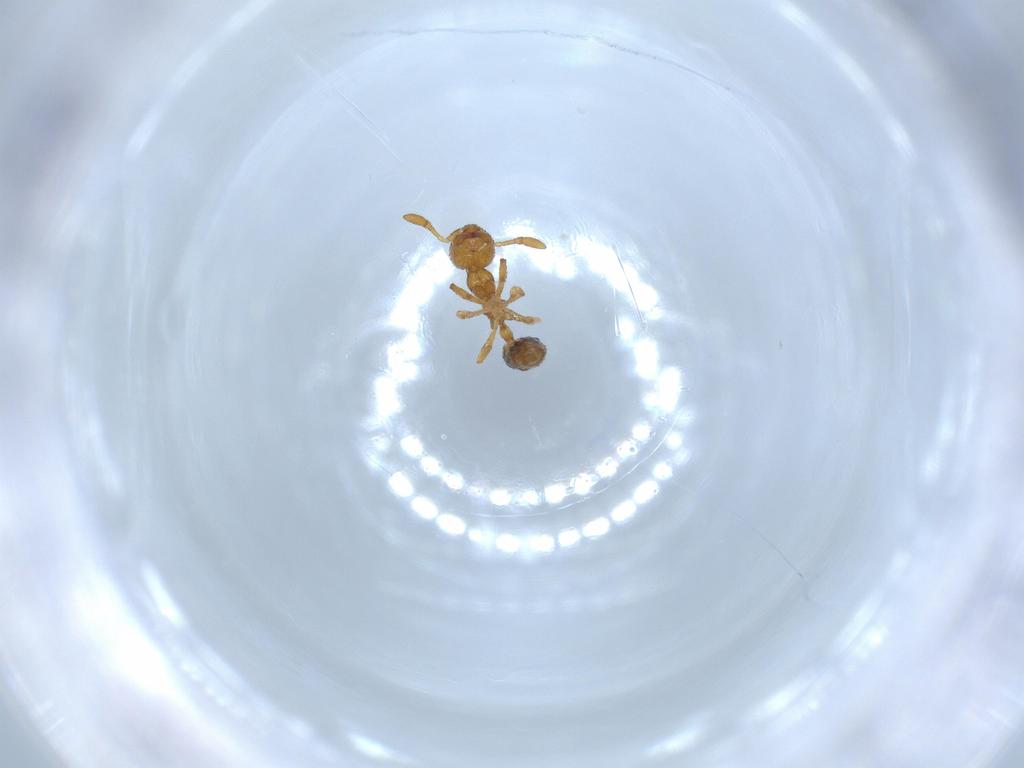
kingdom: Animalia
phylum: Arthropoda
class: Insecta
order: Hymenoptera
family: Formicidae
